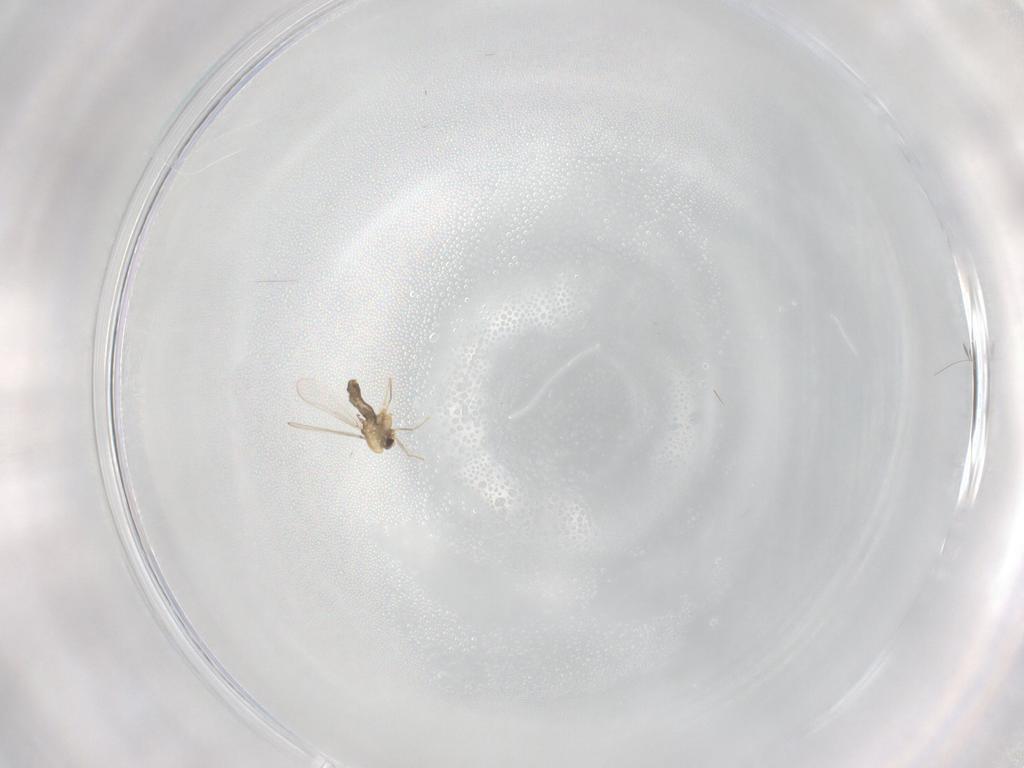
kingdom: Animalia
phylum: Arthropoda
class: Insecta
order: Diptera
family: Chironomidae
